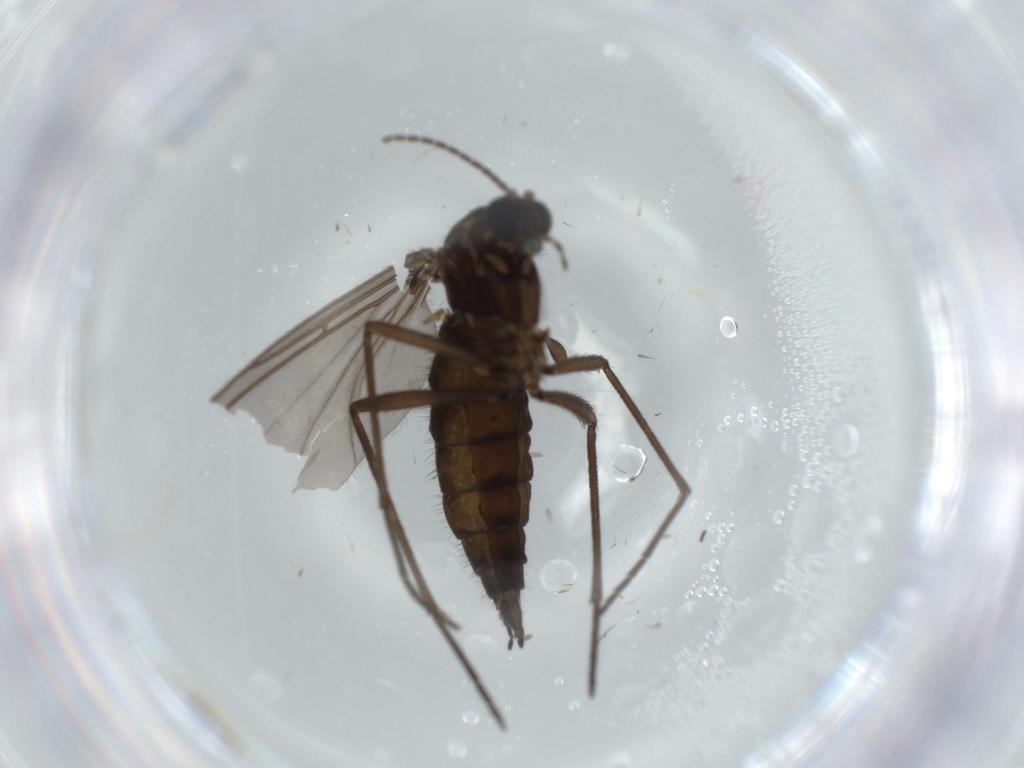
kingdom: Animalia
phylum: Arthropoda
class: Insecta
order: Diptera
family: Sciaridae
